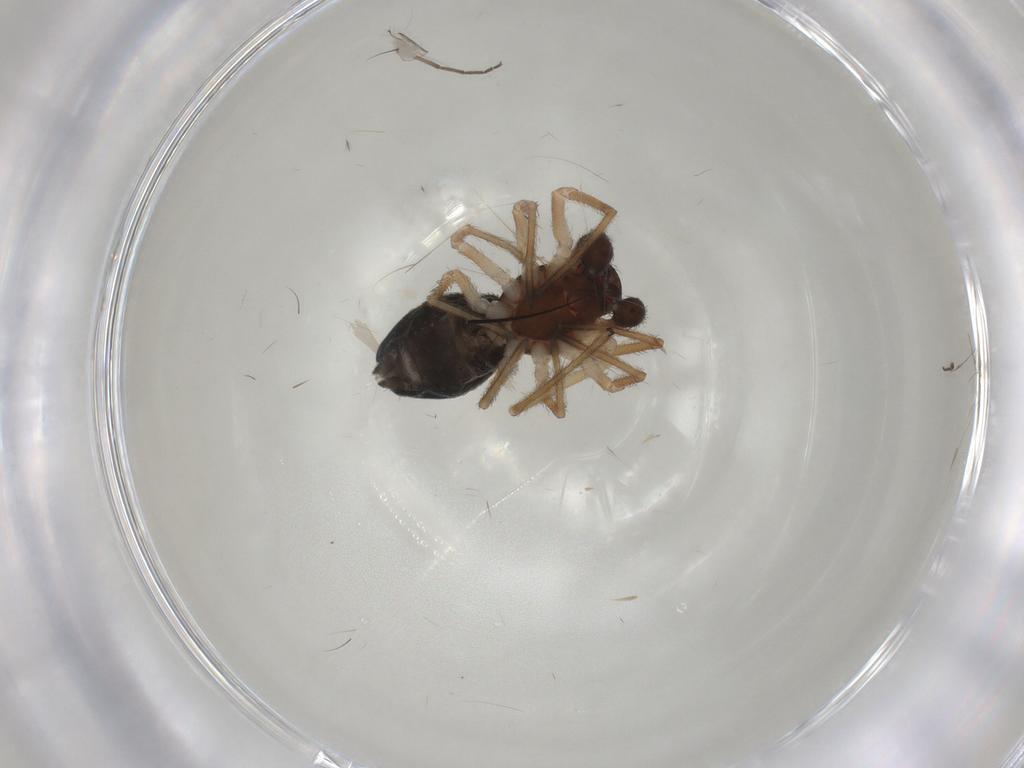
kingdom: Animalia
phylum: Arthropoda
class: Arachnida
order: Araneae
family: Dictynidae
